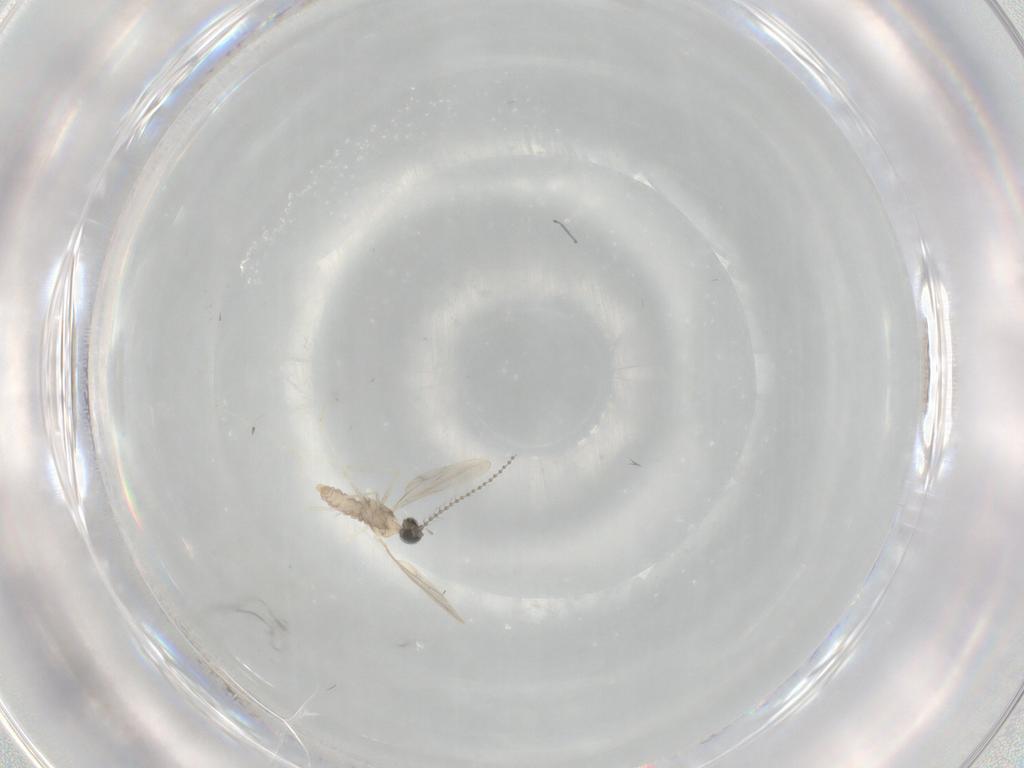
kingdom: Animalia
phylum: Arthropoda
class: Insecta
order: Diptera
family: Cecidomyiidae
